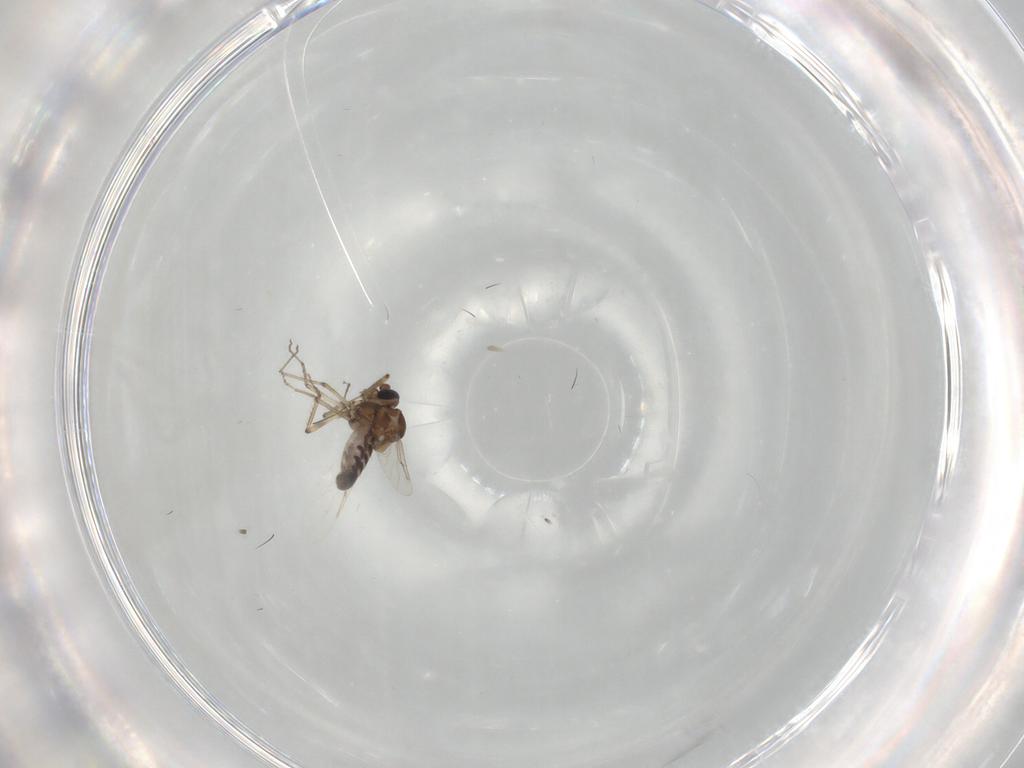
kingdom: Animalia
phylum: Arthropoda
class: Insecta
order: Diptera
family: Ceratopogonidae
